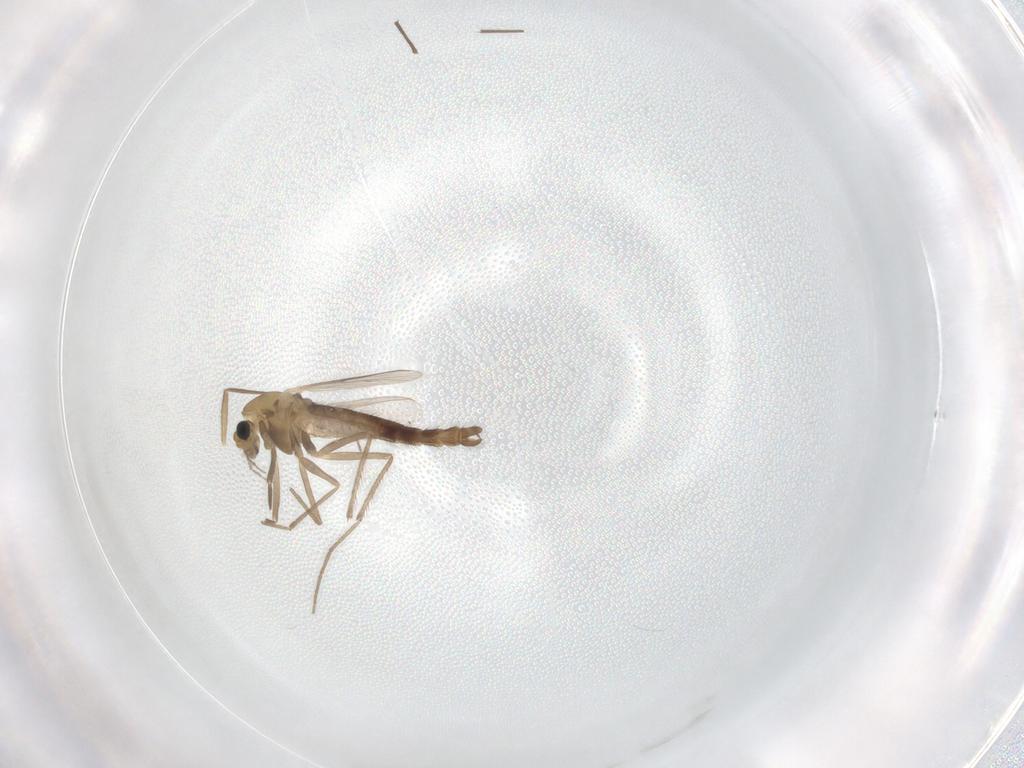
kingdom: Animalia
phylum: Arthropoda
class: Insecta
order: Diptera
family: Chironomidae
